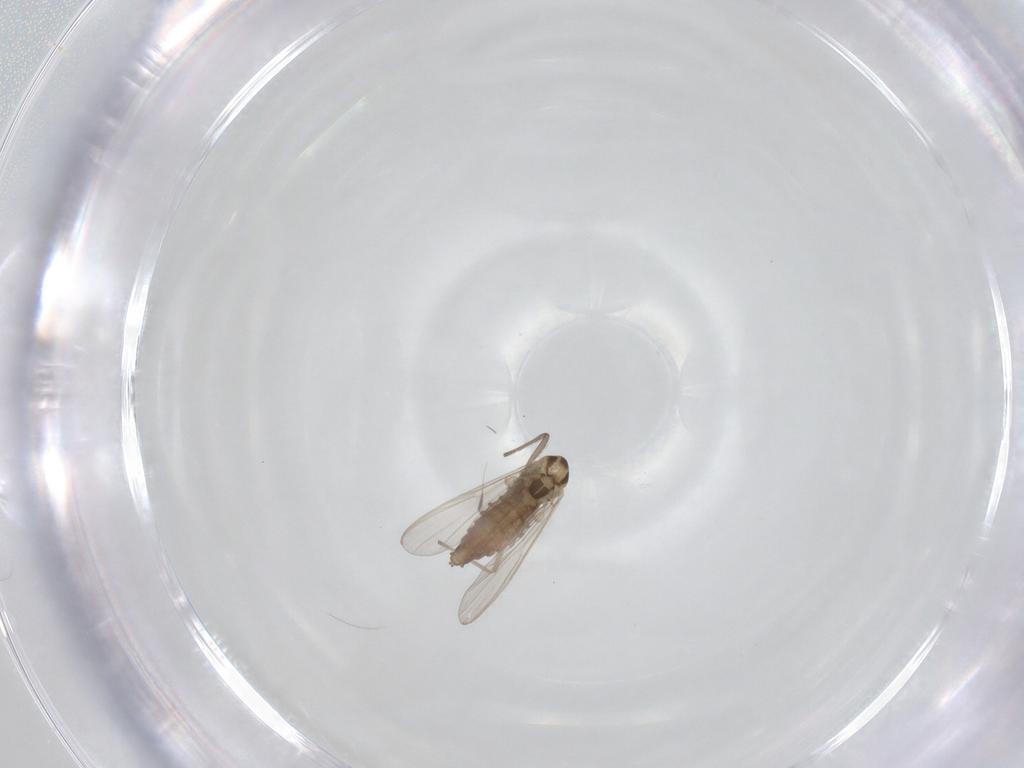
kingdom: Animalia
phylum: Arthropoda
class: Insecta
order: Diptera
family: Chironomidae
